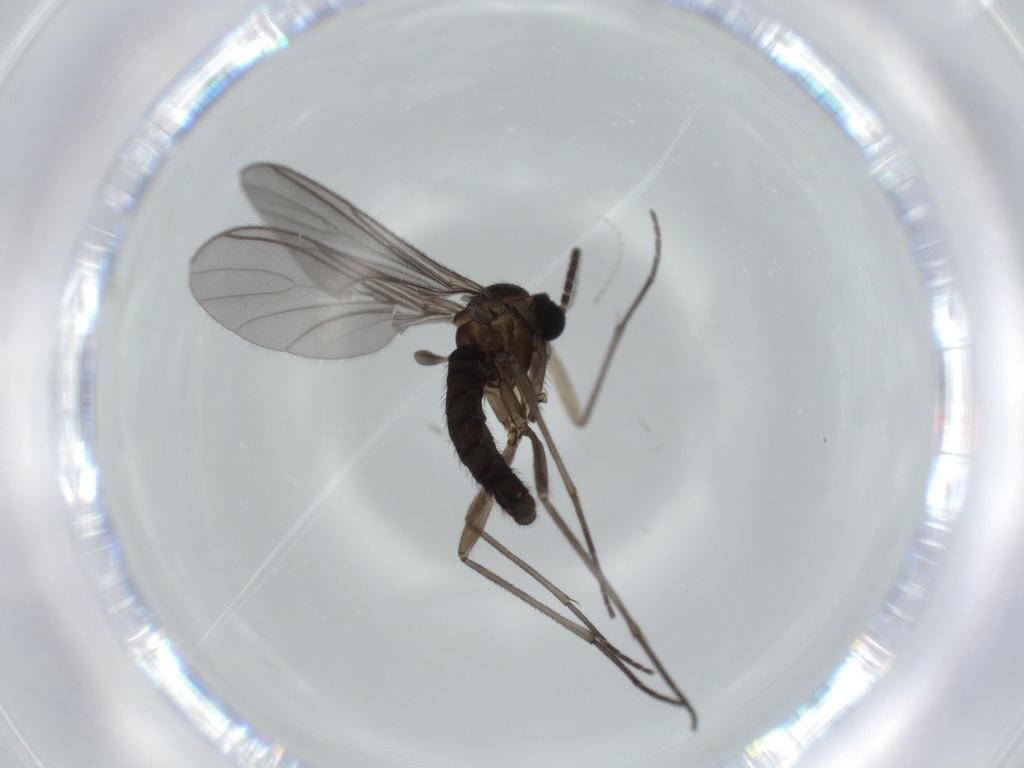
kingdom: Animalia
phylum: Arthropoda
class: Insecta
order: Diptera
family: Sciaridae
